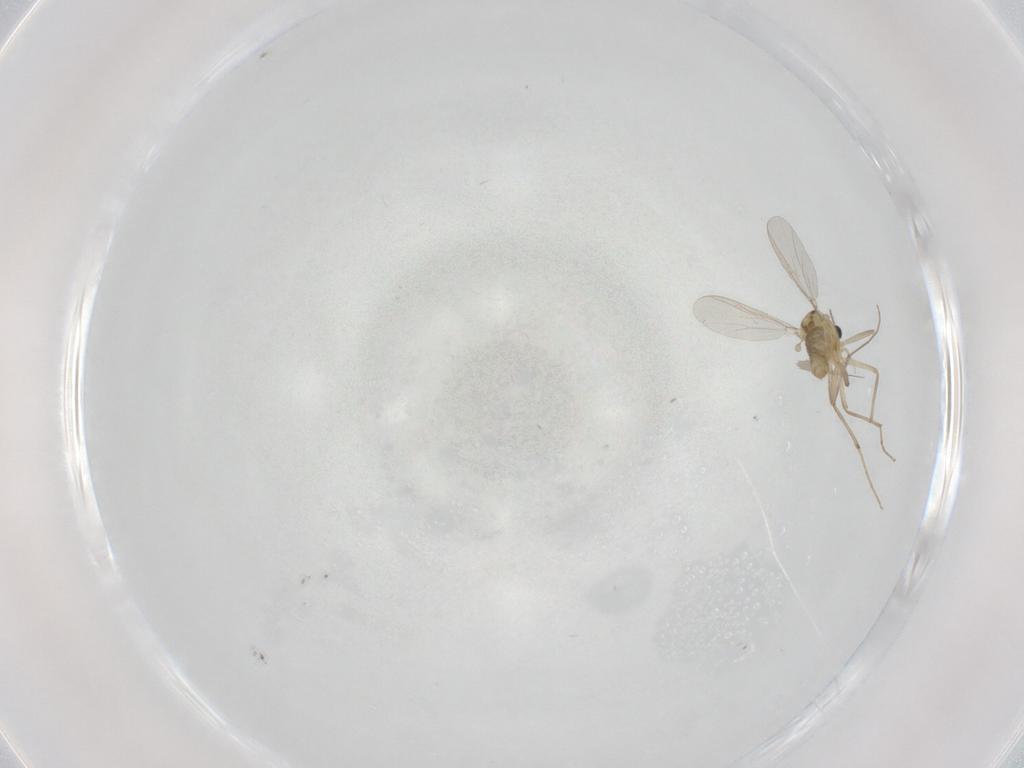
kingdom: Animalia
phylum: Arthropoda
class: Insecta
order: Diptera
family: Chironomidae
